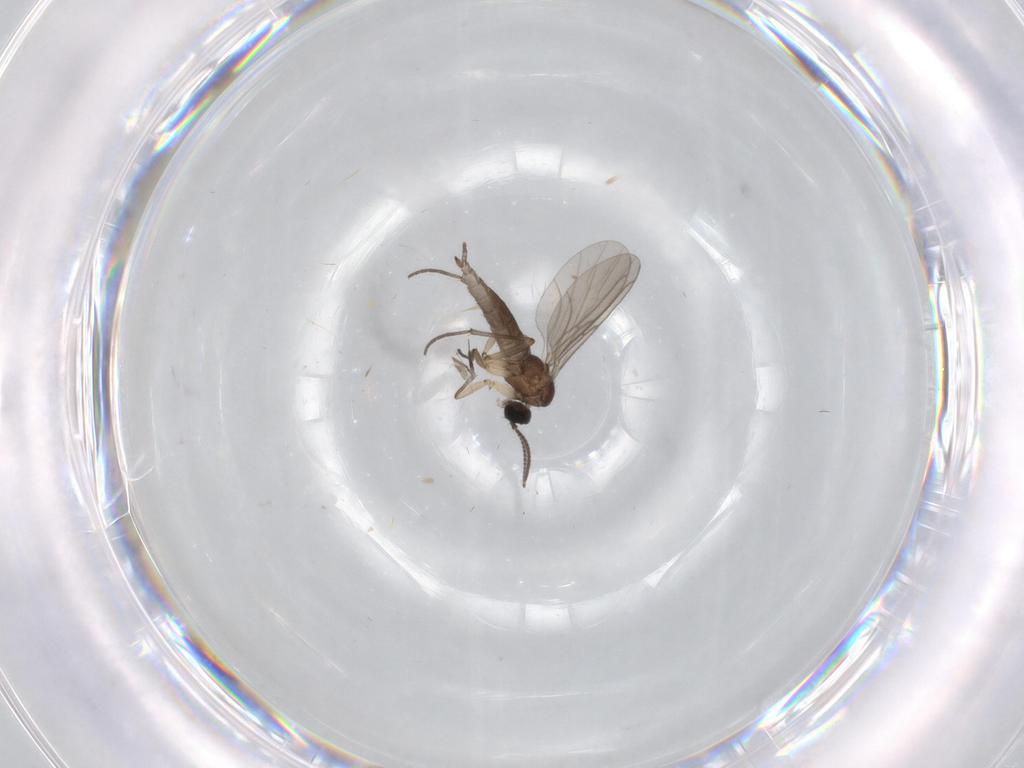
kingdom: Animalia
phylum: Arthropoda
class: Insecta
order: Diptera
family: Sciaridae
